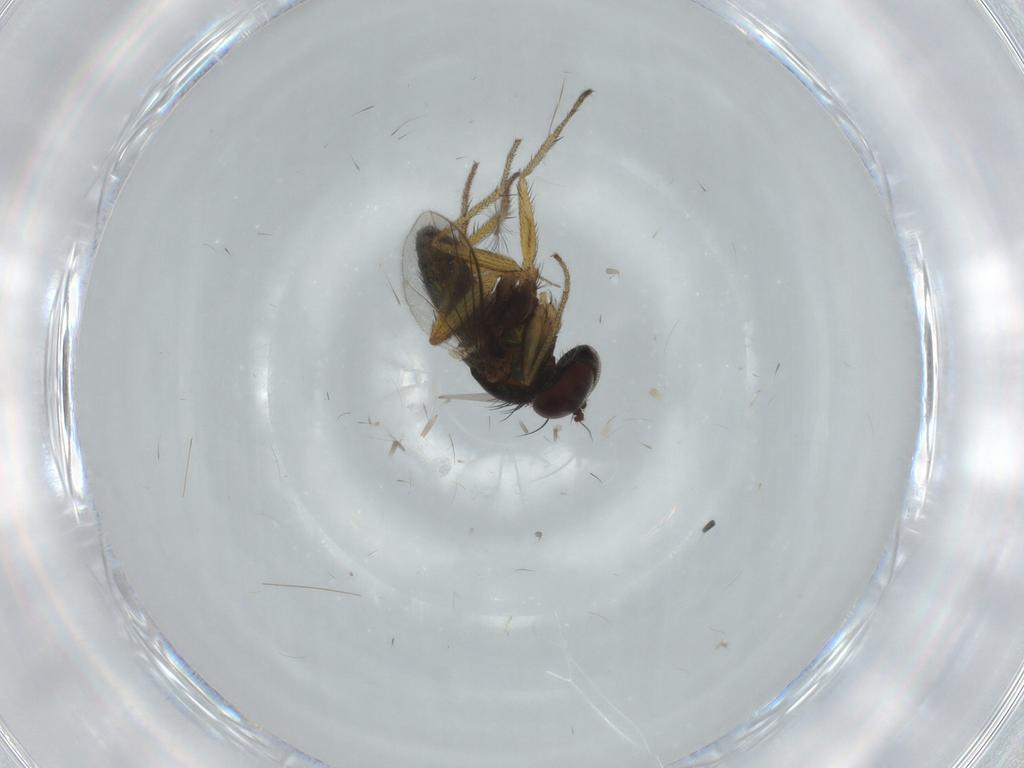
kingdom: Animalia
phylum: Arthropoda
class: Insecta
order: Diptera
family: Dolichopodidae
